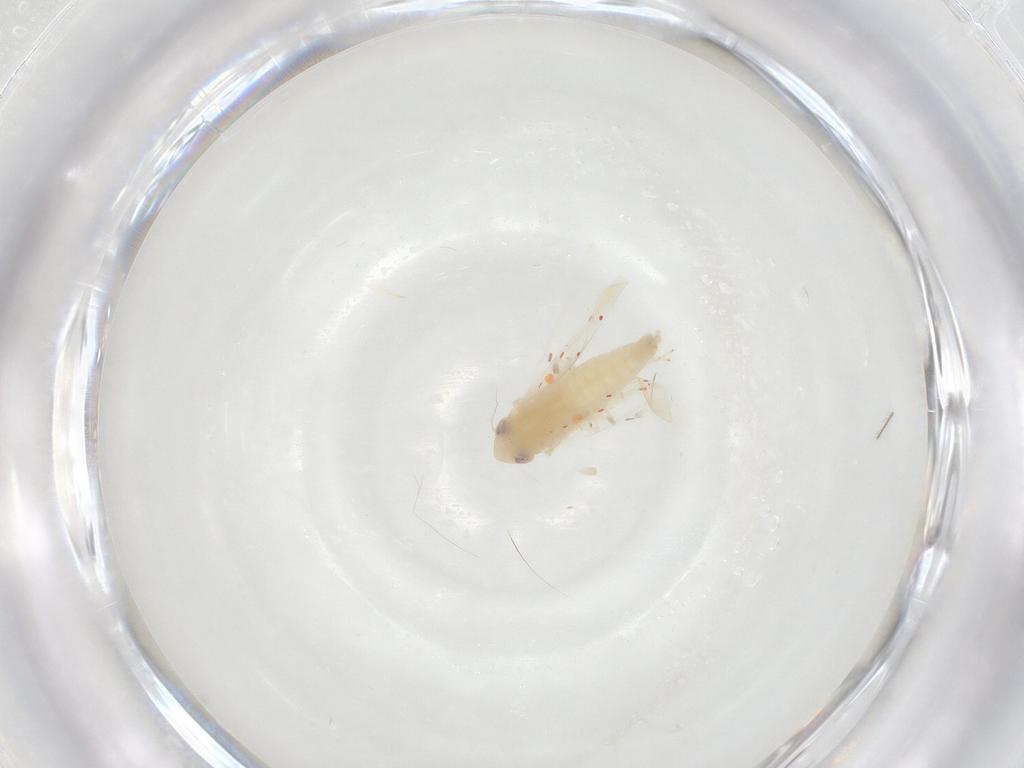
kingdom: Animalia
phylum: Arthropoda
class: Insecta
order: Hemiptera
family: Cicadellidae
